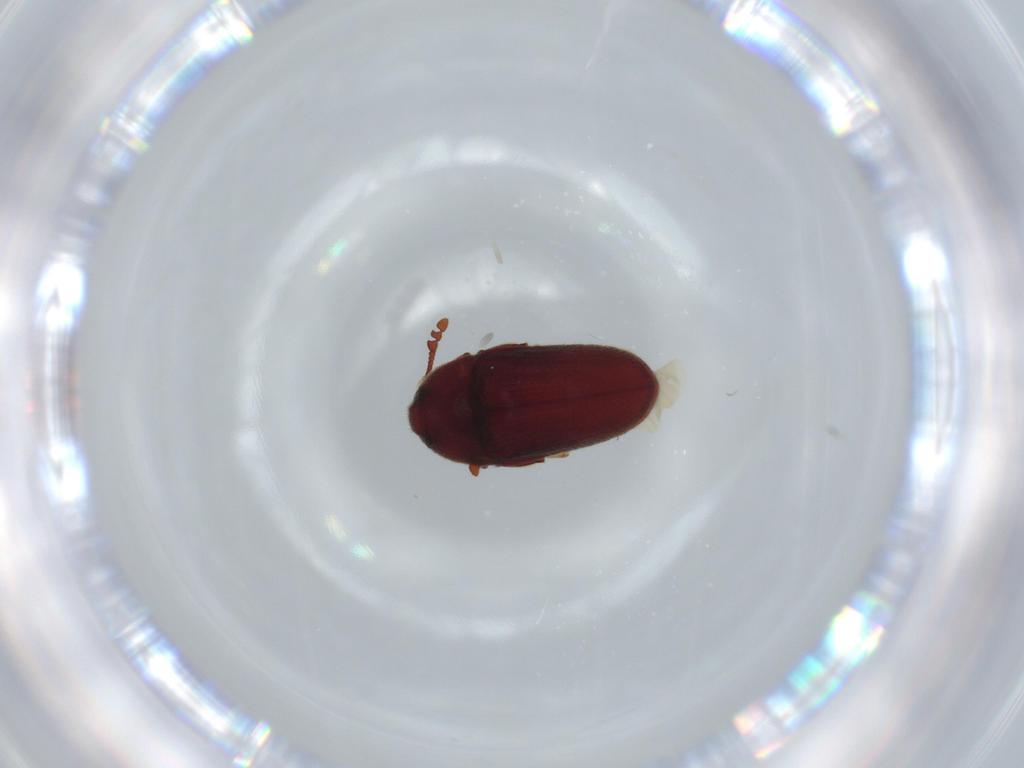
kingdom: Animalia
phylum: Arthropoda
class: Insecta
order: Coleoptera
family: Throscidae
